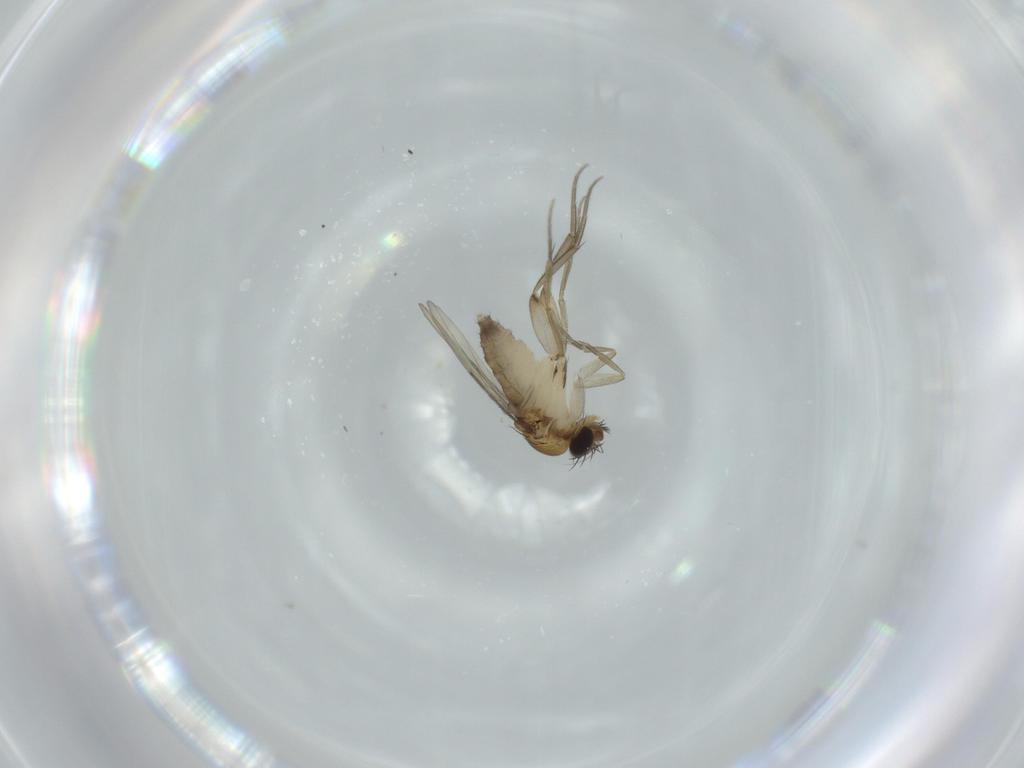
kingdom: Animalia
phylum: Arthropoda
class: Insecta
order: Diptera
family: Phoridae
